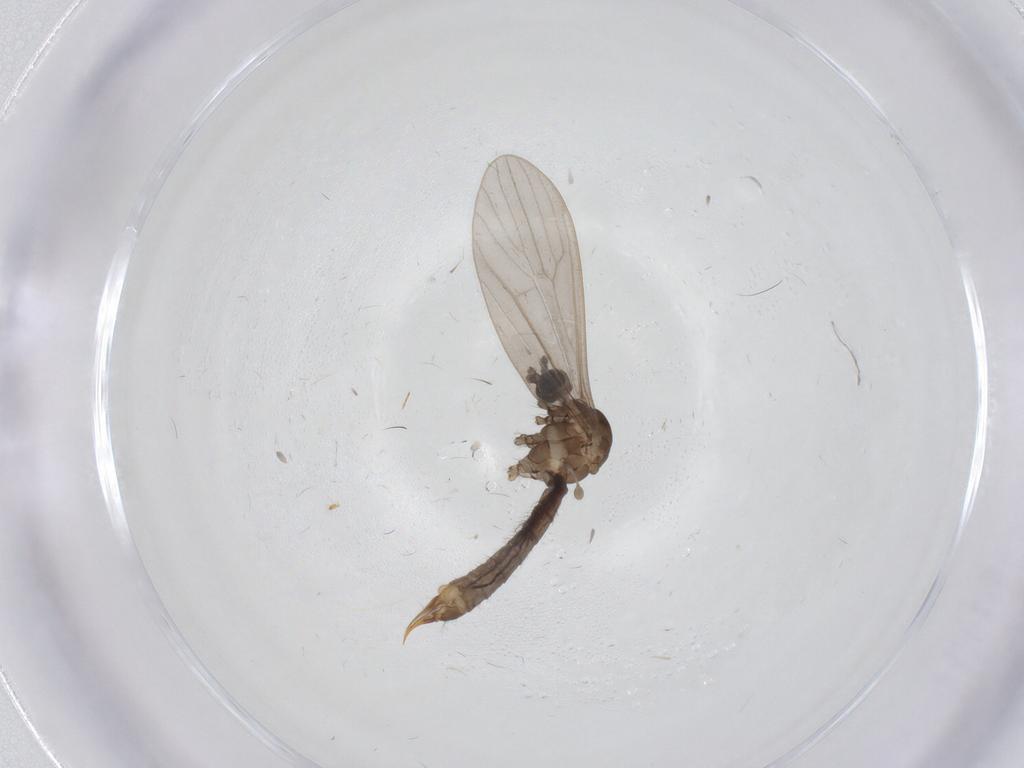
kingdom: Animalia
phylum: Arthropoda
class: Insecta
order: Diptera
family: Limoniidae
